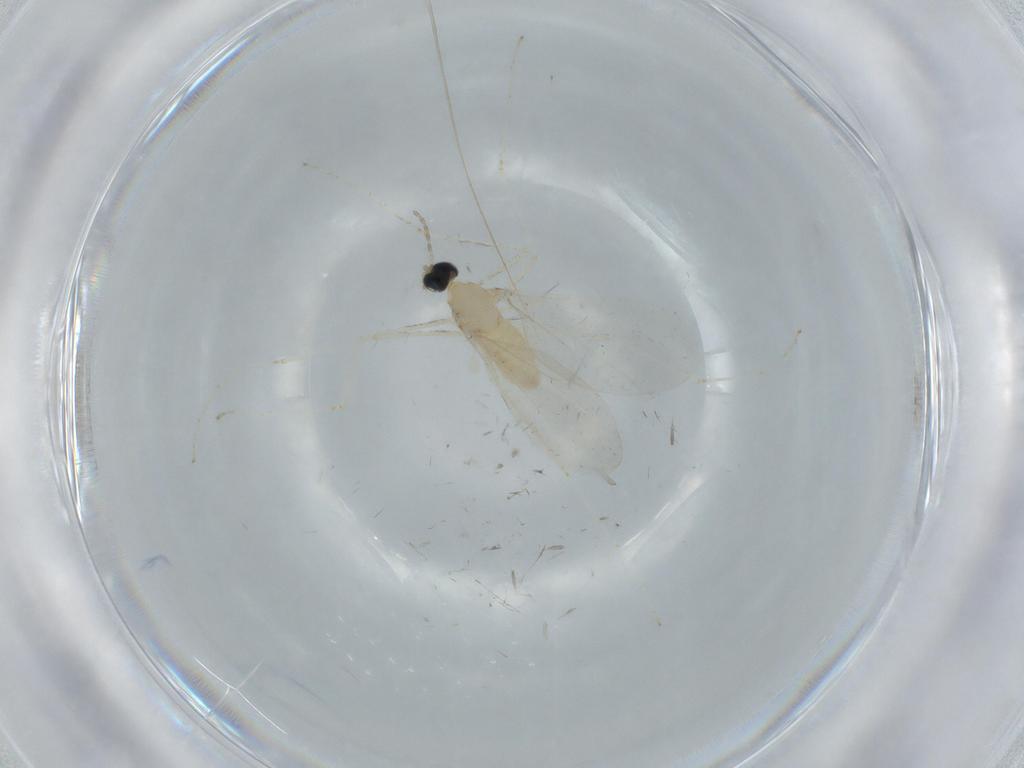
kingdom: Animalia
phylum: Arthropoda
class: Insecta
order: Diptera
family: Cecidomyiidae
